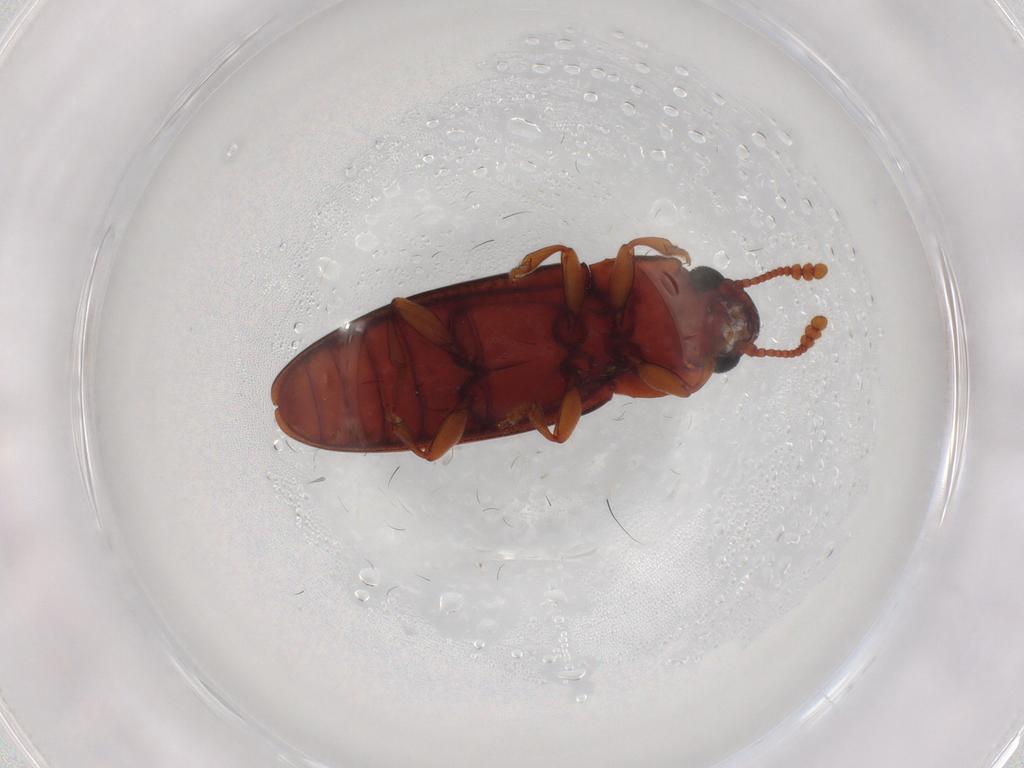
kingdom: Animalia
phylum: Arthropoda
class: Insecta
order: Coleoptera
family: Erotylidae
